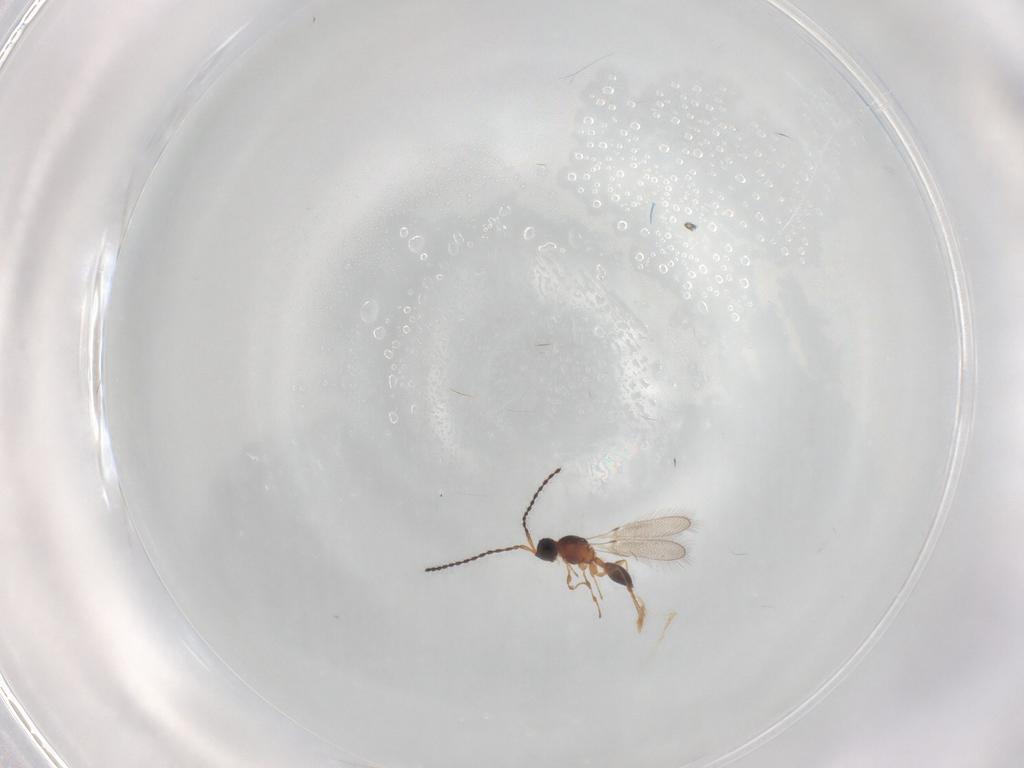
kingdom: Animalia
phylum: Arthropoda
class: Insecta
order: Hymenoptera
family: Diapriidae
